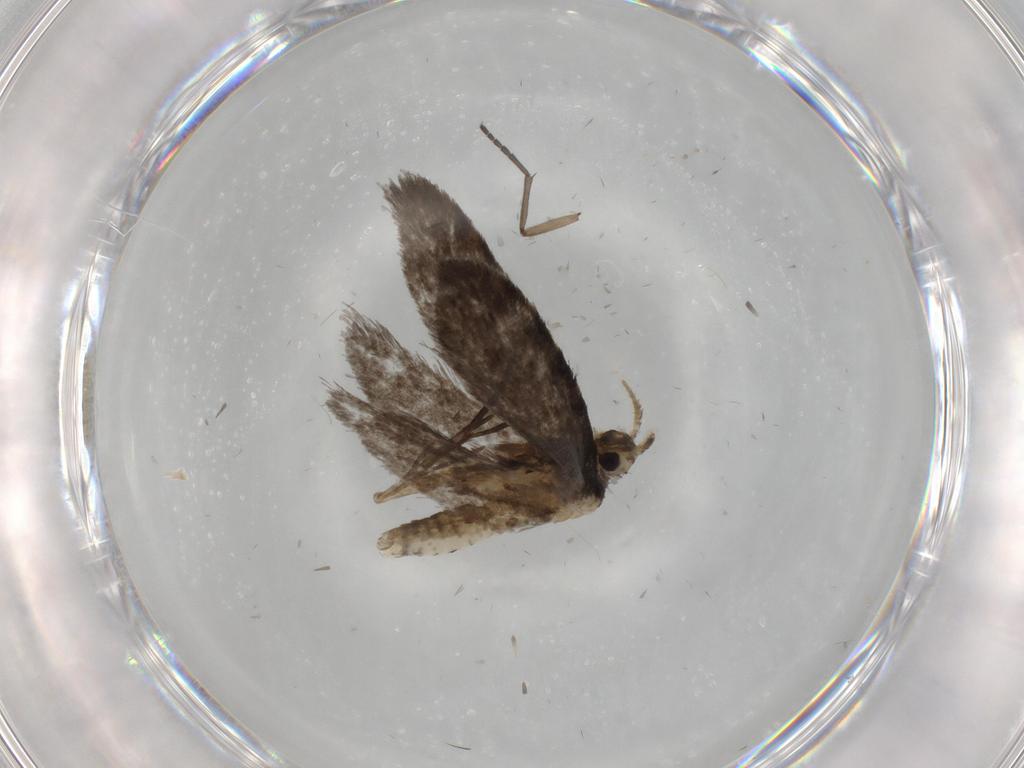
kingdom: Animalia
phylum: Arthropoda
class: Insecta
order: Lepidoptera
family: Psychidae
